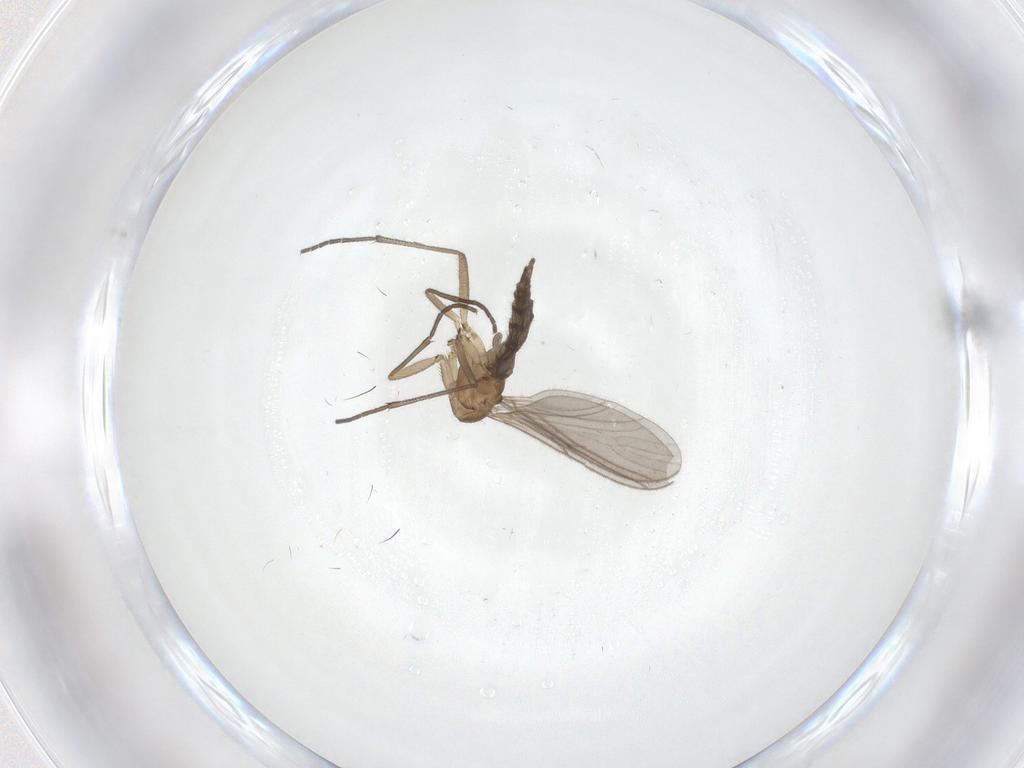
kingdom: Animalia
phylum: Arthropoda
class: Insecta
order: Diptera
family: Sciaridae
